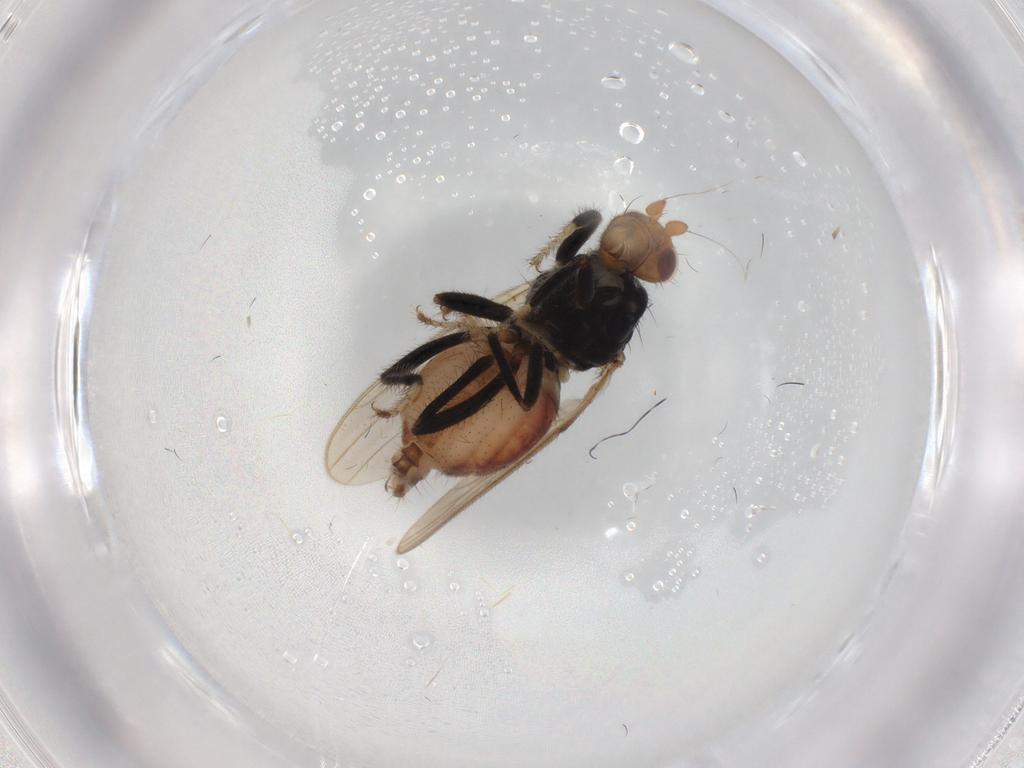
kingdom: Animalia
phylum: Arthropoda
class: Insecta
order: Diptera
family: Sphaeroceridae
